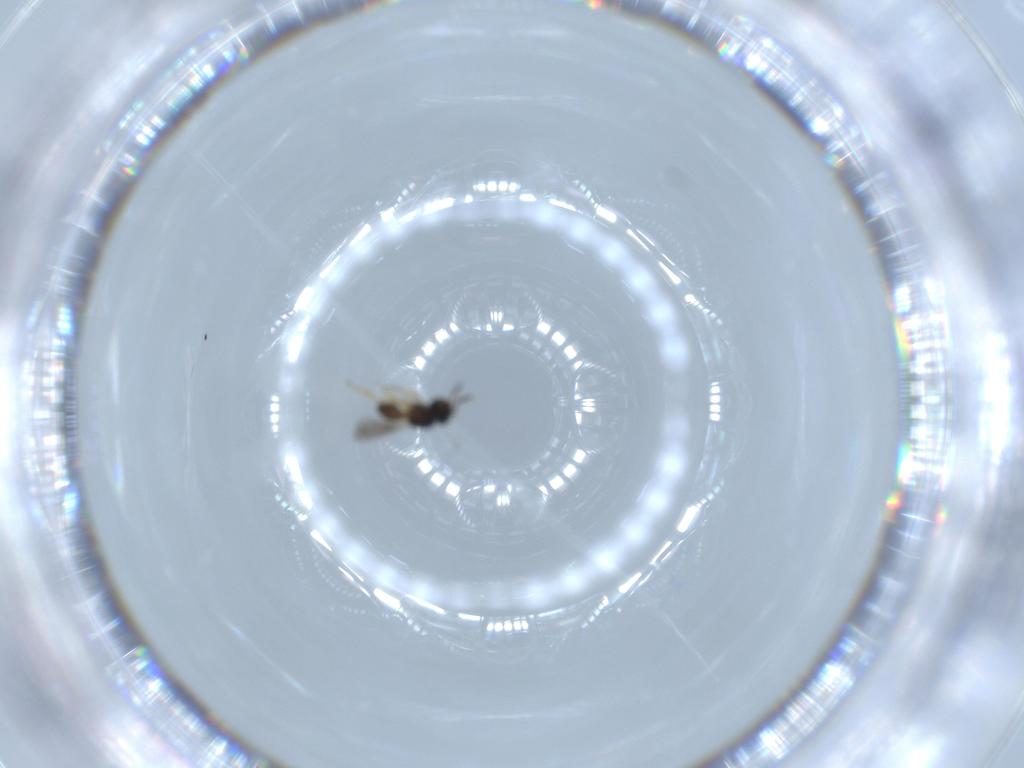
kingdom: Animalia
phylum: Arthropoda
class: Insecta
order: Hymenoptera
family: Scelionidae
